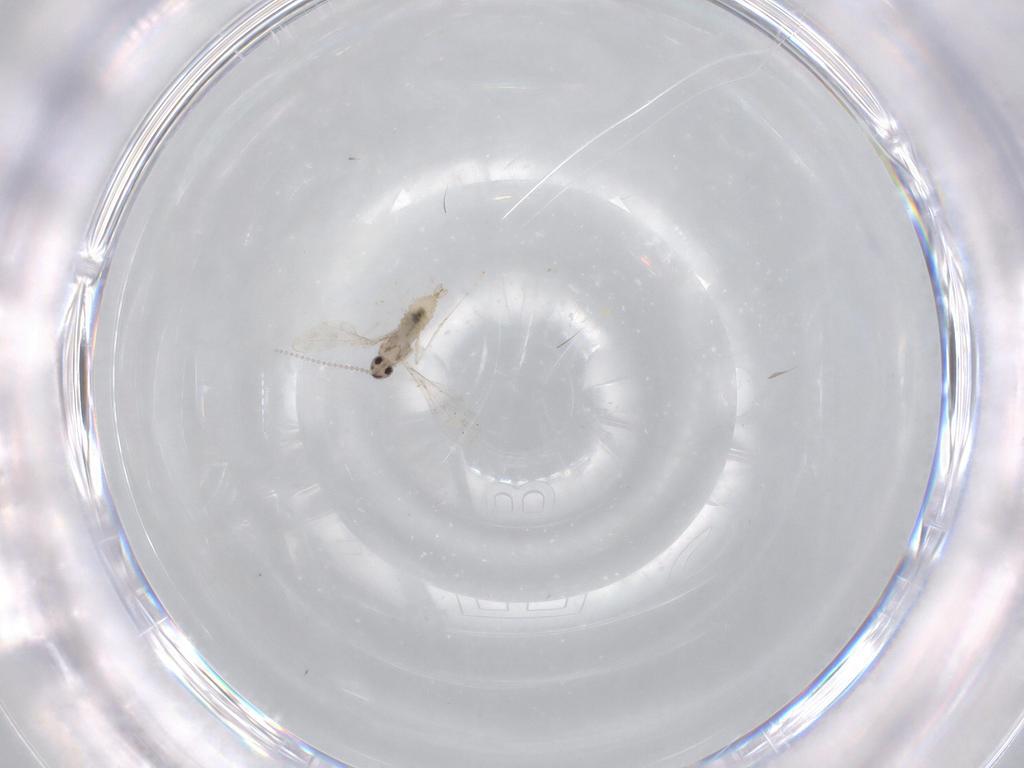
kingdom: Animalia
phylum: Arthropoda
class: Insecta
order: Diptera
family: Cecidomyiidae
